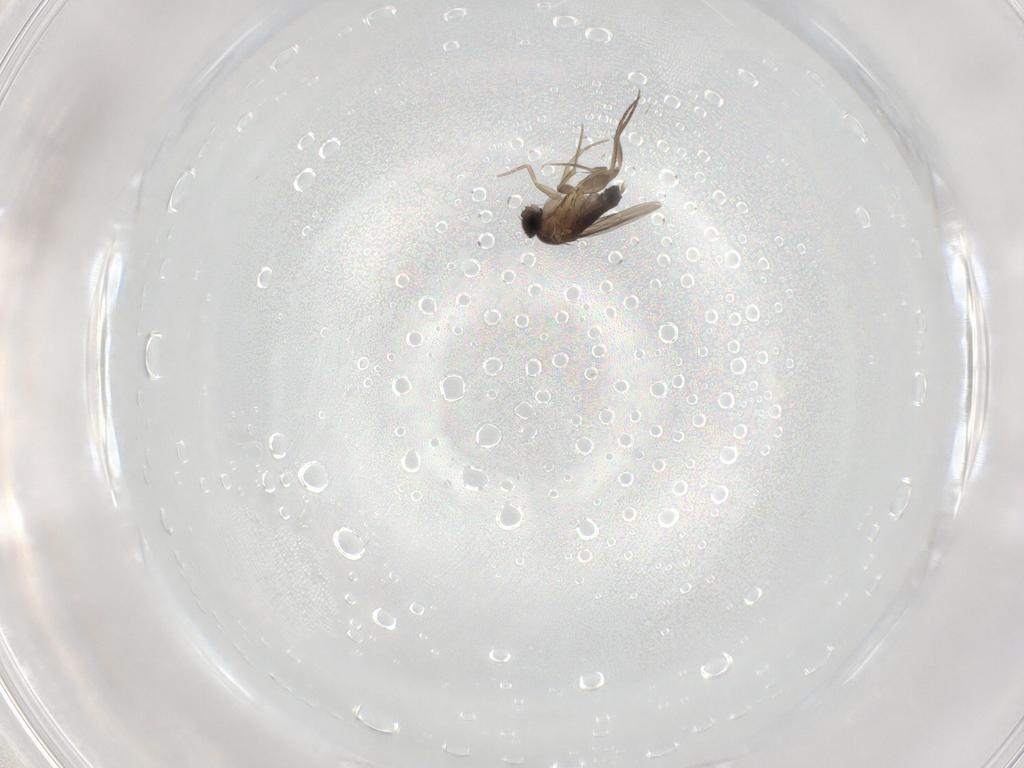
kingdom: Animalia
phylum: Arthropoda
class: Insecta
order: Diptera
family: Phoridae
